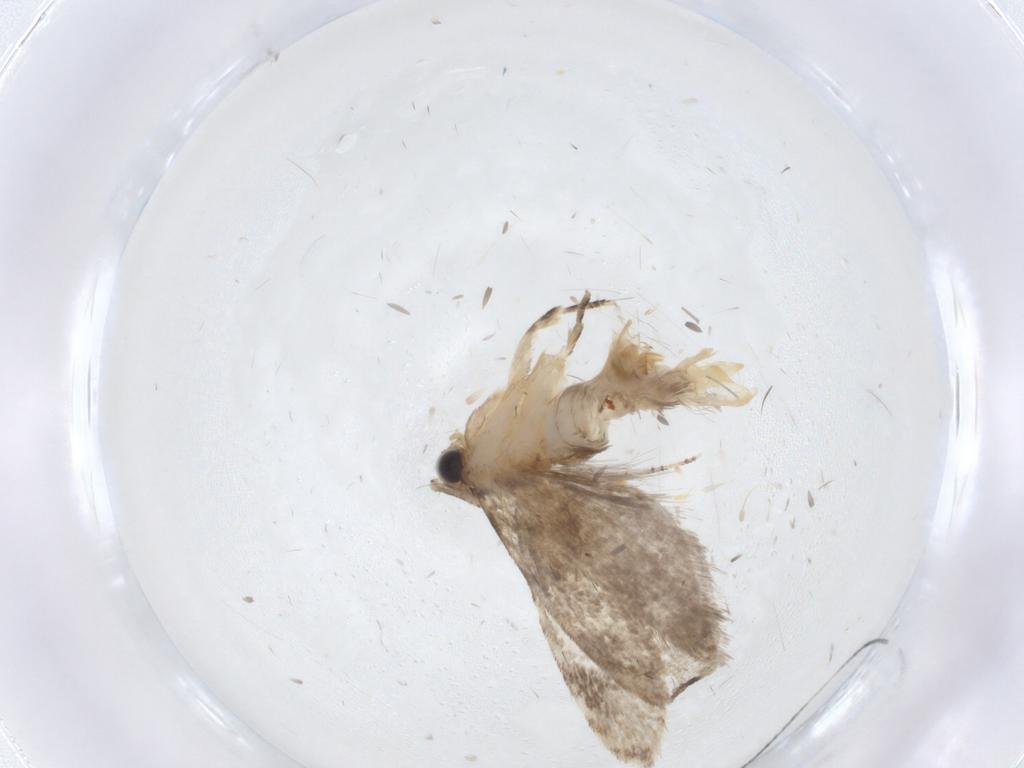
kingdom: Animalia
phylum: Arthropoda
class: Insecta
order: Lepidoptera
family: Tineidae
